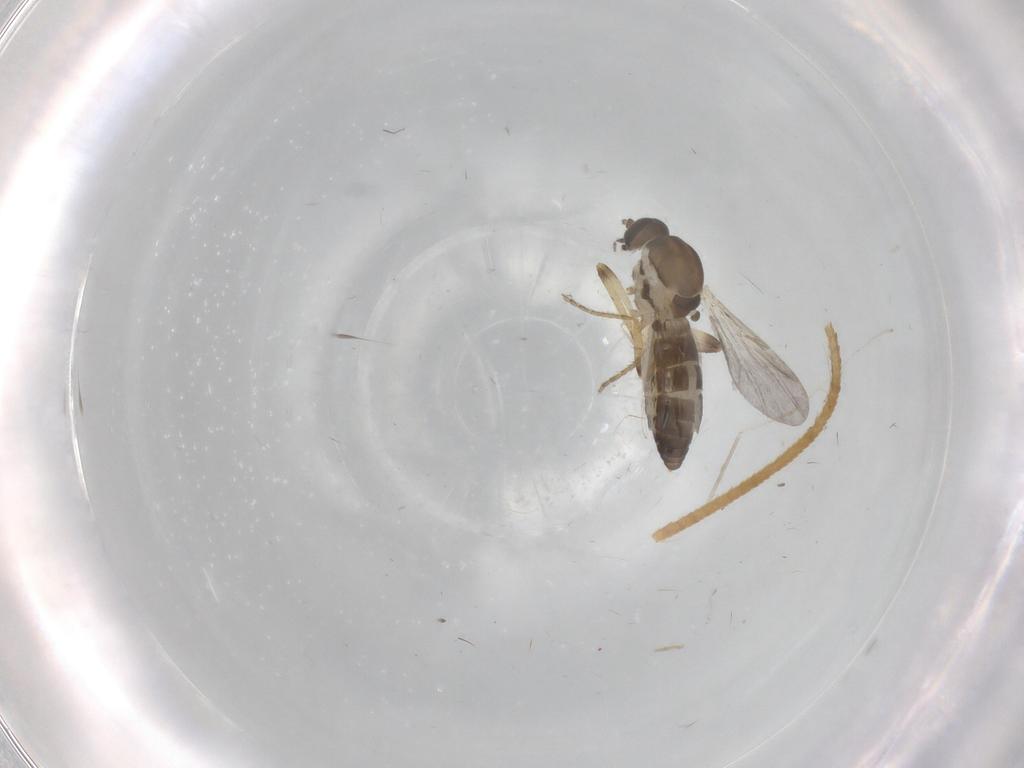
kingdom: Animalia
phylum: Arthropoda
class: Insecta
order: Diptera
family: Ceratopogonidae
